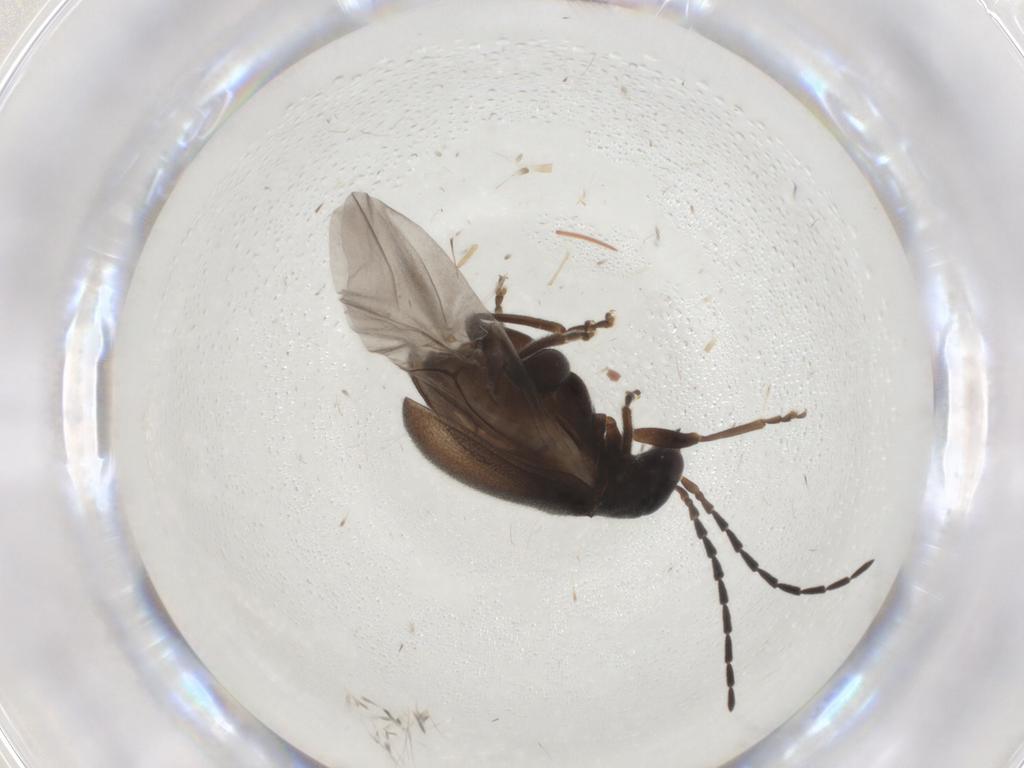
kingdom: Animalia
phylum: Arthropoda
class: Insecta
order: Coleoptera
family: Chrysomelidae
